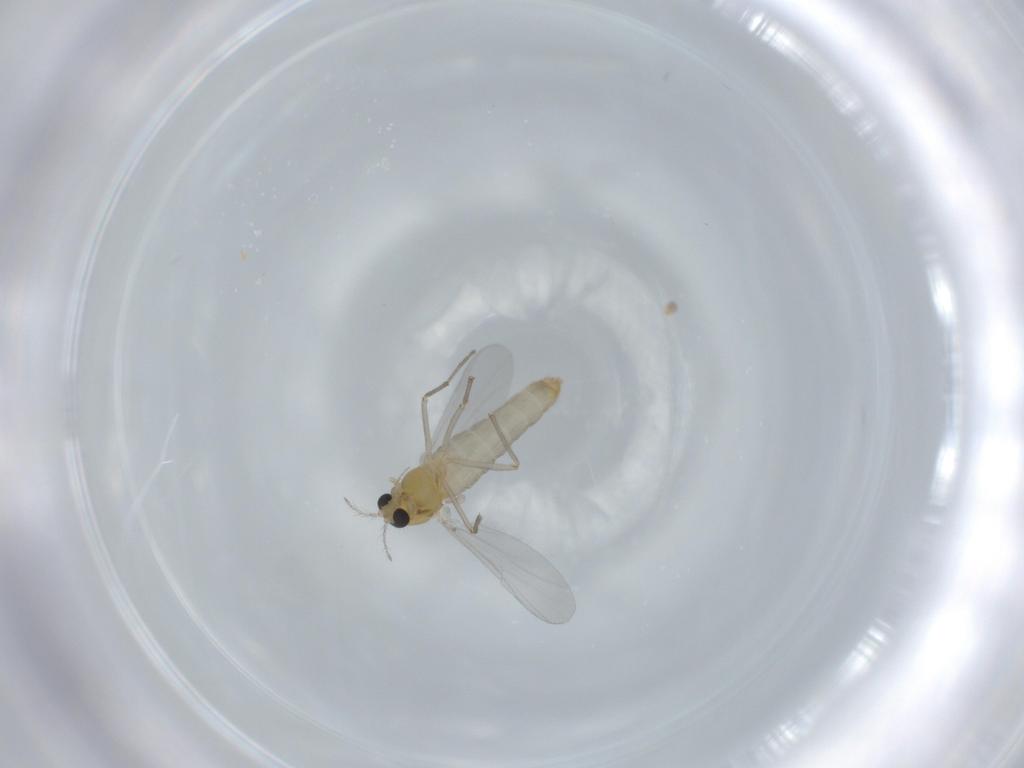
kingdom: Animalia
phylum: Arthropoda
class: Insecta
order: Diptera
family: Chironomidae
